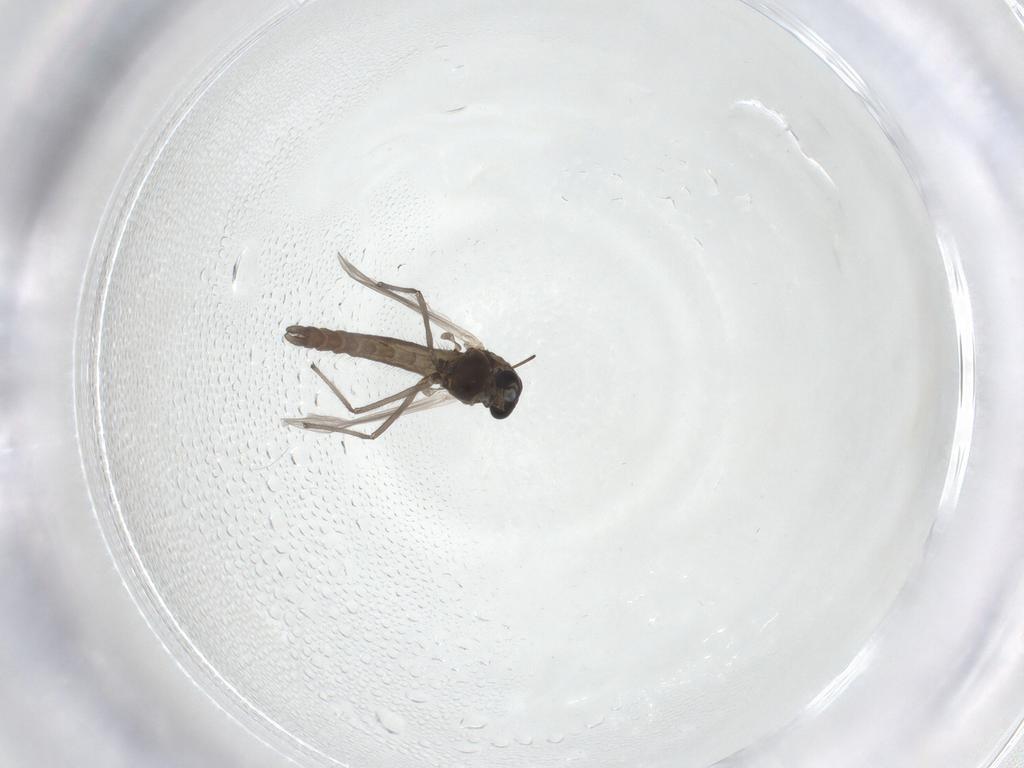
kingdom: Animalia
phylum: Arthropoda
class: Insecta
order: Diptera
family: Chironomidae
